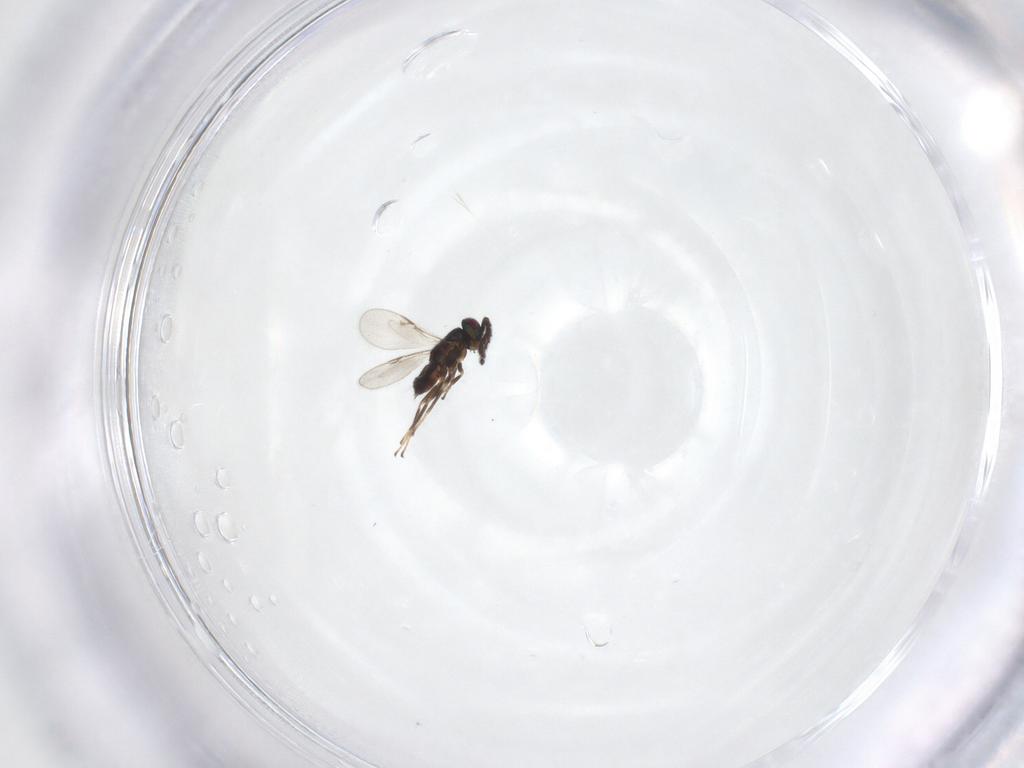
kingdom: Animalia
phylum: Arthropoda
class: Insecta
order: Hymenoptera
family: Encyrtidae
